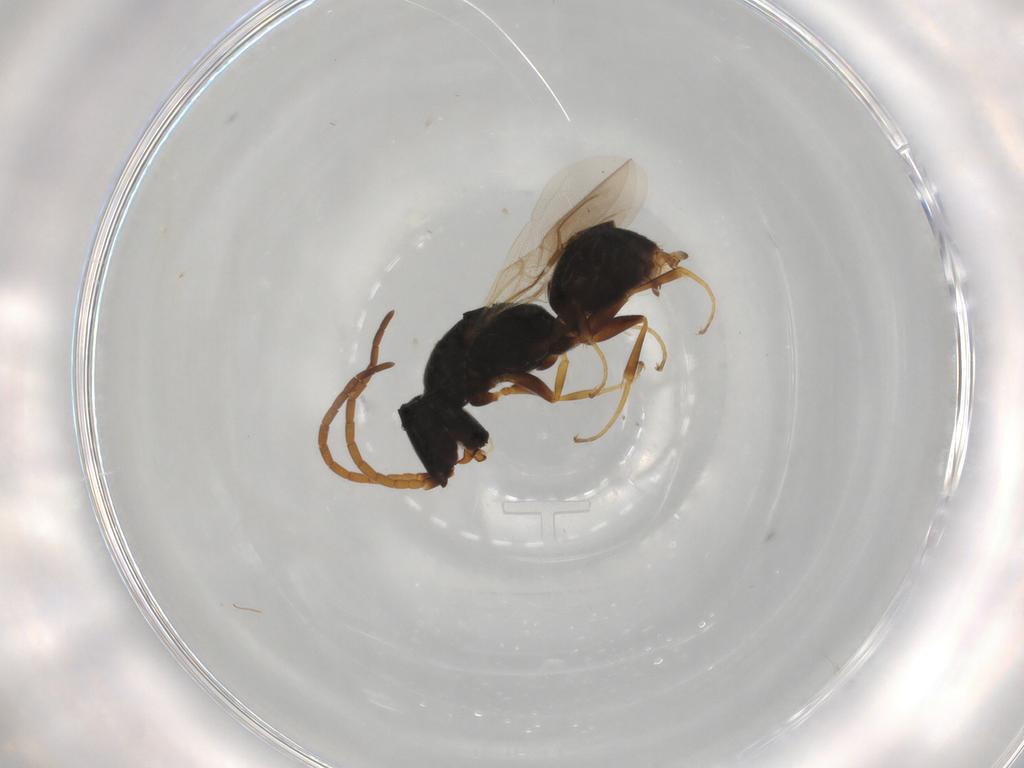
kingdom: Animalia
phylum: Arthropoda
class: Insecta
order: Hymenoptera
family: Bethylidae
